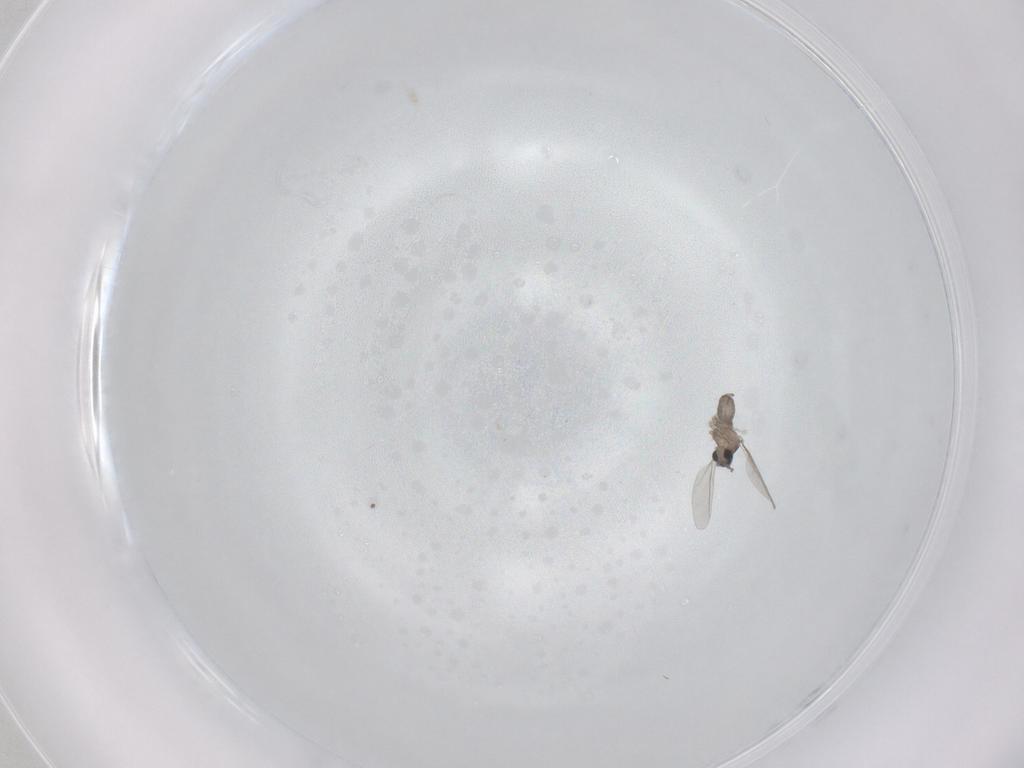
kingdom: Animalia
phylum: Arthropoda
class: Insecta
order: Diptera
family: Cecidomyiidae
